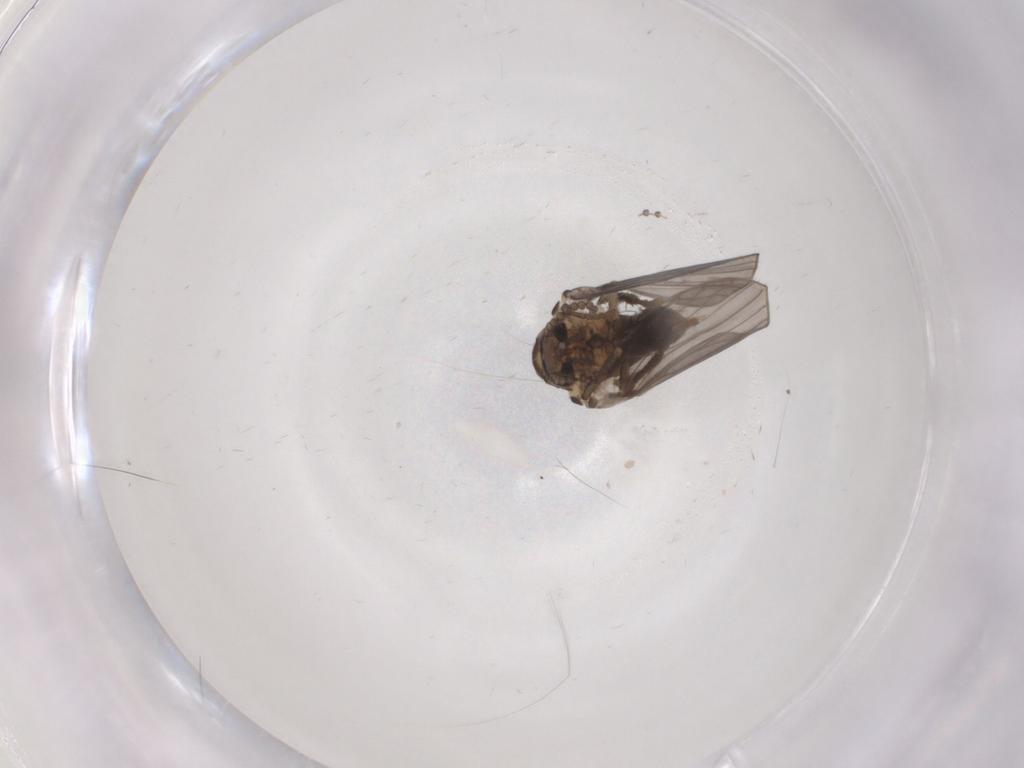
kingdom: Animalia
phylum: Arthropoda
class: Insecta
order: Diptera
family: Psychodidae
